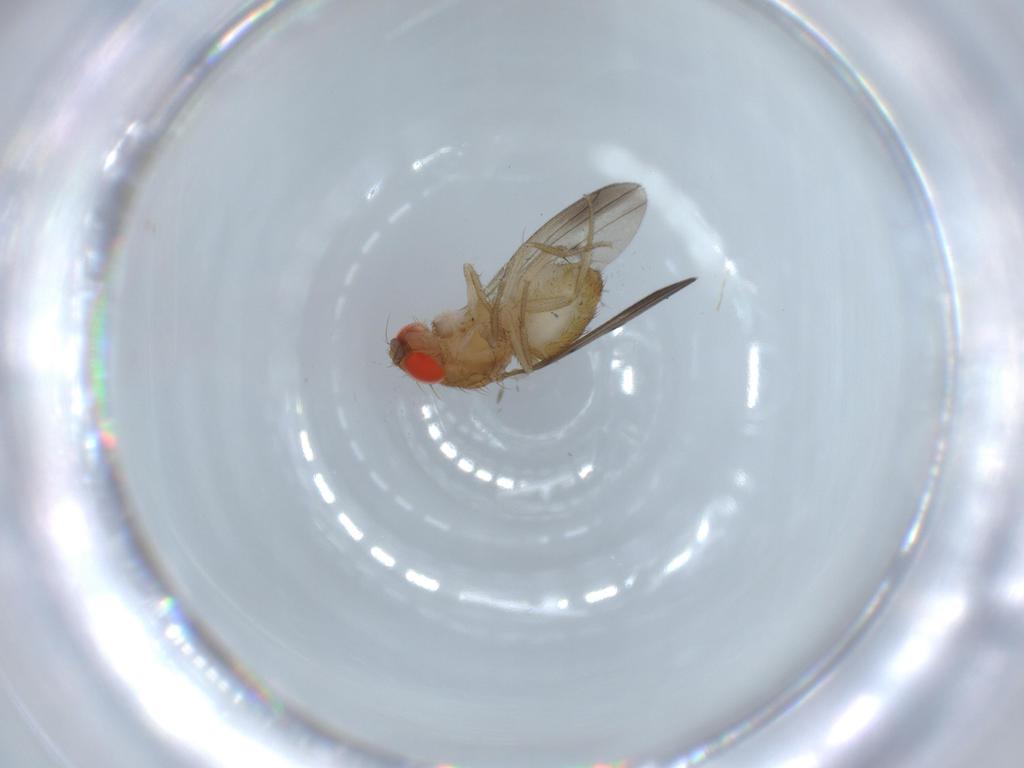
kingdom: Animalia
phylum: Arthropoda
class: Insecta
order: Diptera
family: Drosophilidae
